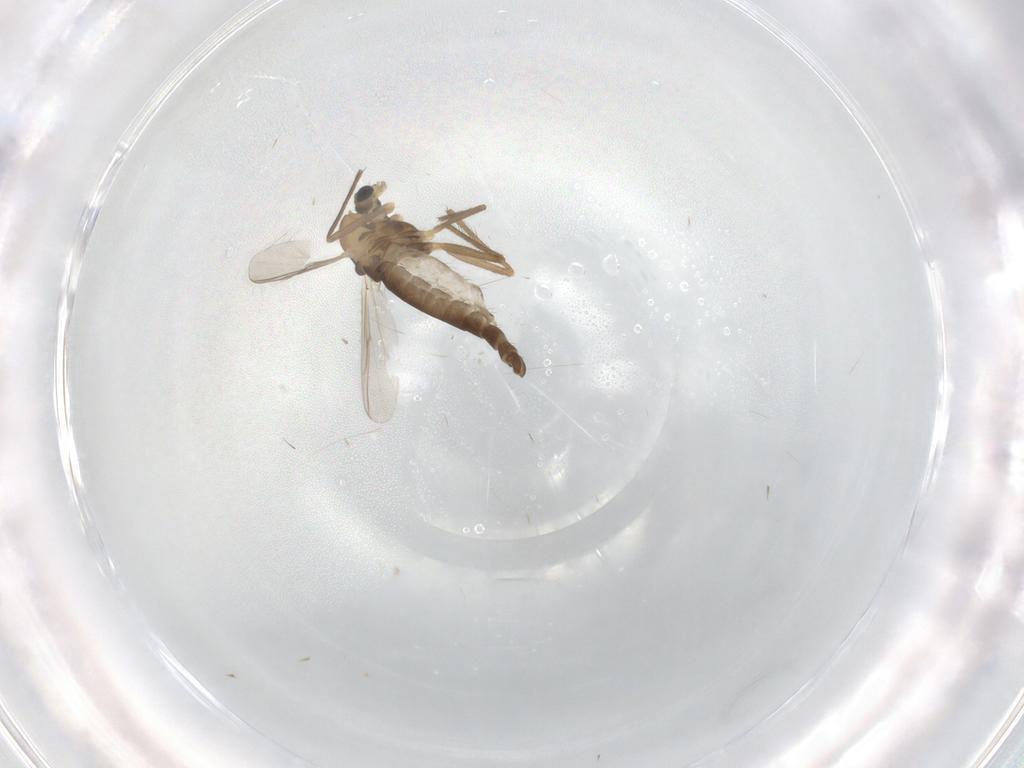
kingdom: Animalia
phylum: Arthropoda
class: Insecta
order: Diptera
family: Chironomidae
